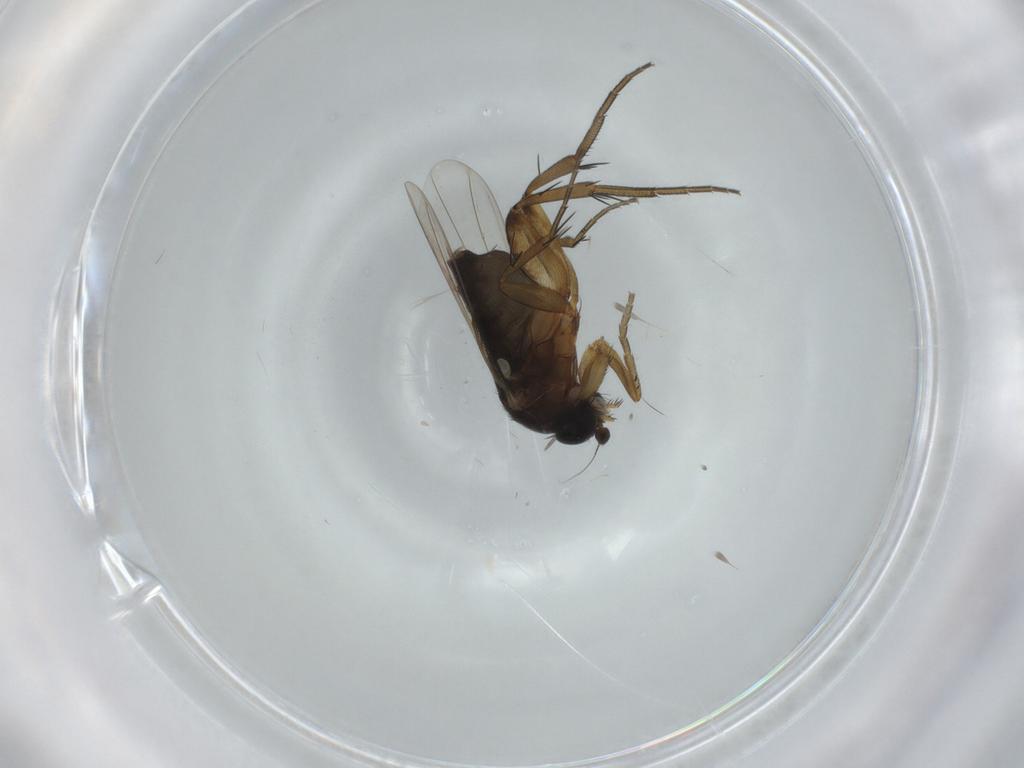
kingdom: Animalia
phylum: Arthropoda
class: Insecta
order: Diptera
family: Phoridae
